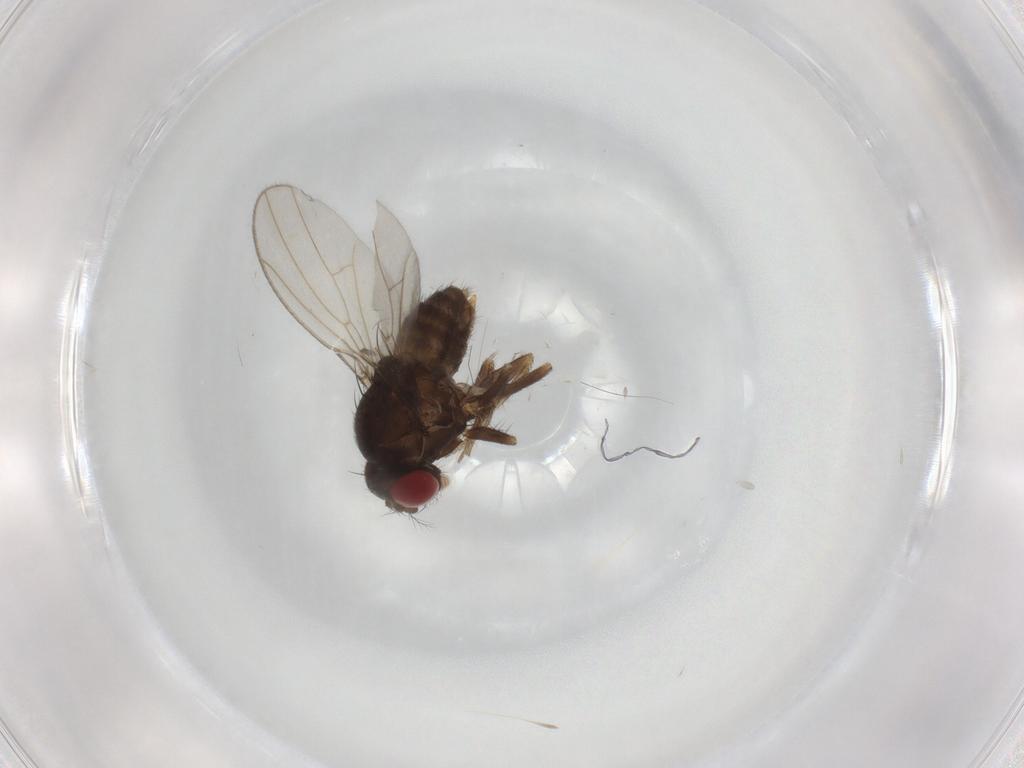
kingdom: Animalia
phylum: Arthropoda
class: Insecta
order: Diptera
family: Drosophilidae
